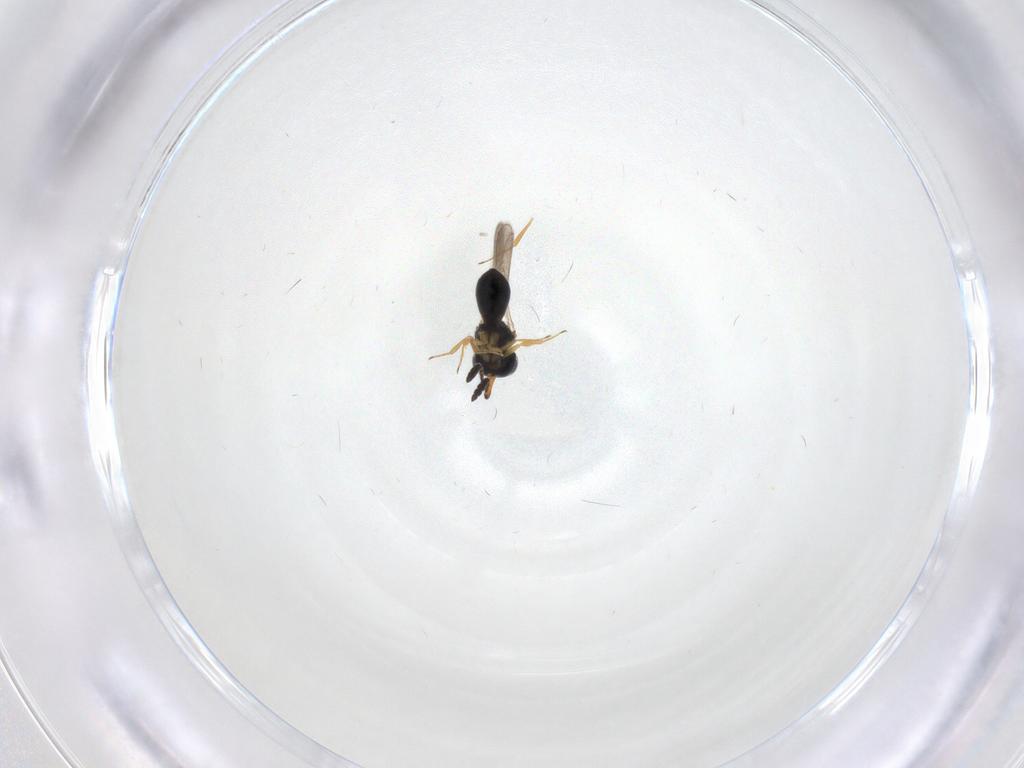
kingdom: Animalia
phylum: Arthropoda
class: Insecta
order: Hymenoptera
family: Scelionidae
